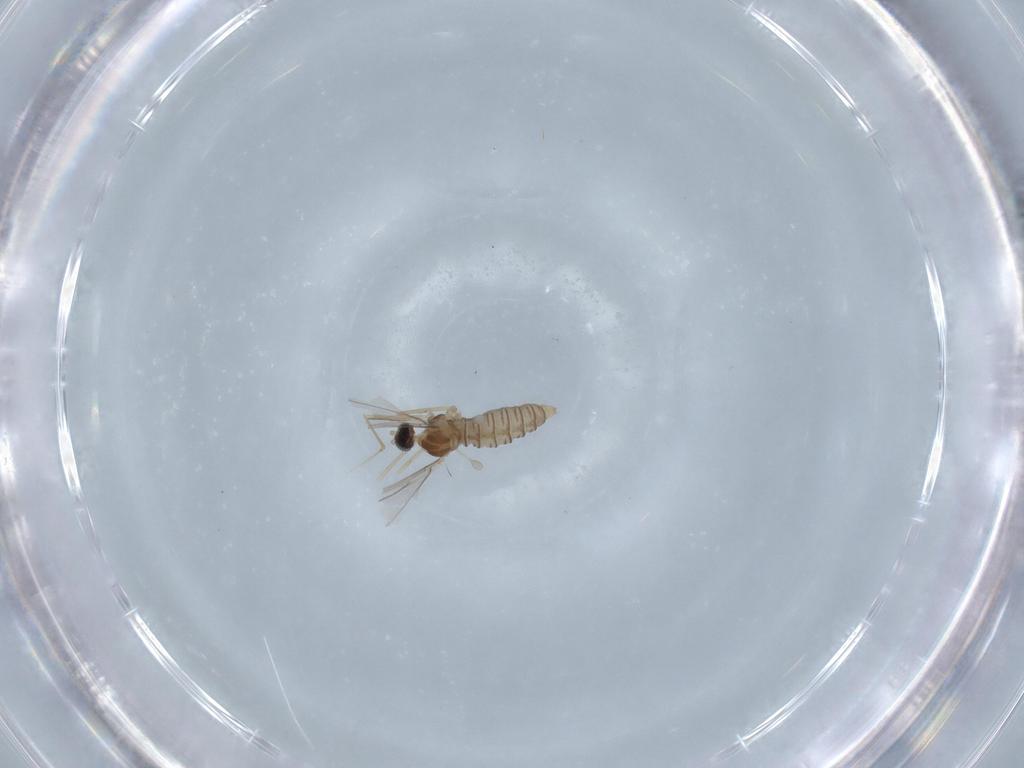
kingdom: Animalia
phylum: Arthropoda
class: Insecta
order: Diptera
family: Cecidomyiidae
